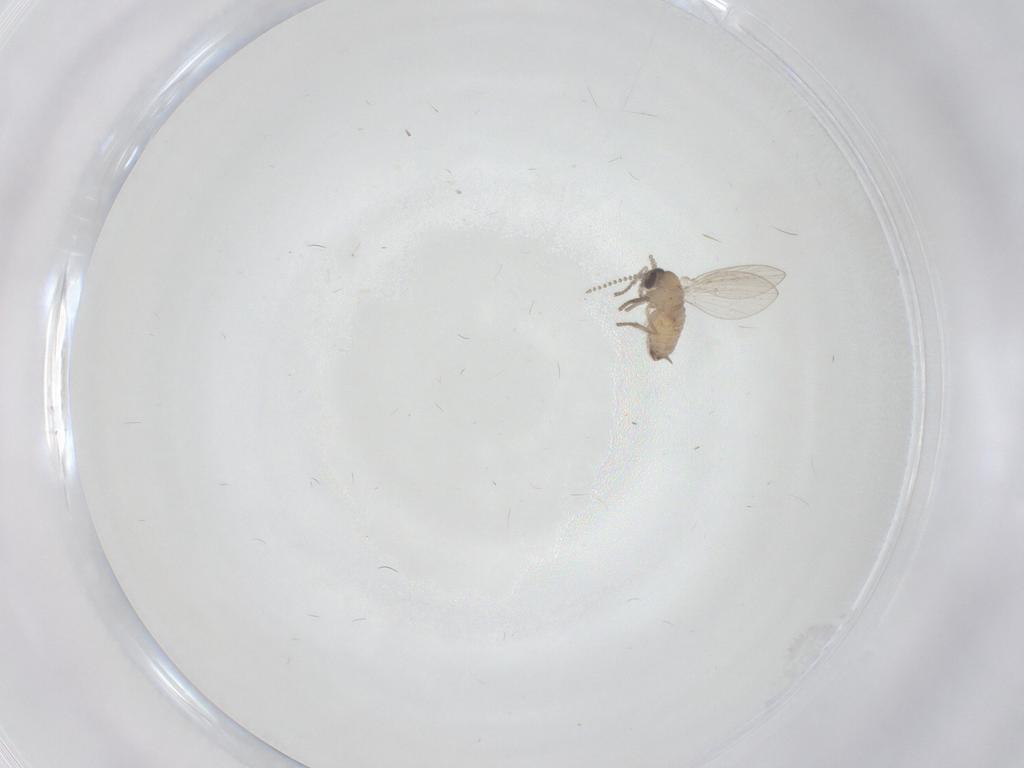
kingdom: Animalia
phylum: Arthropoda
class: Insecta
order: Diptera
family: Psychodidae
